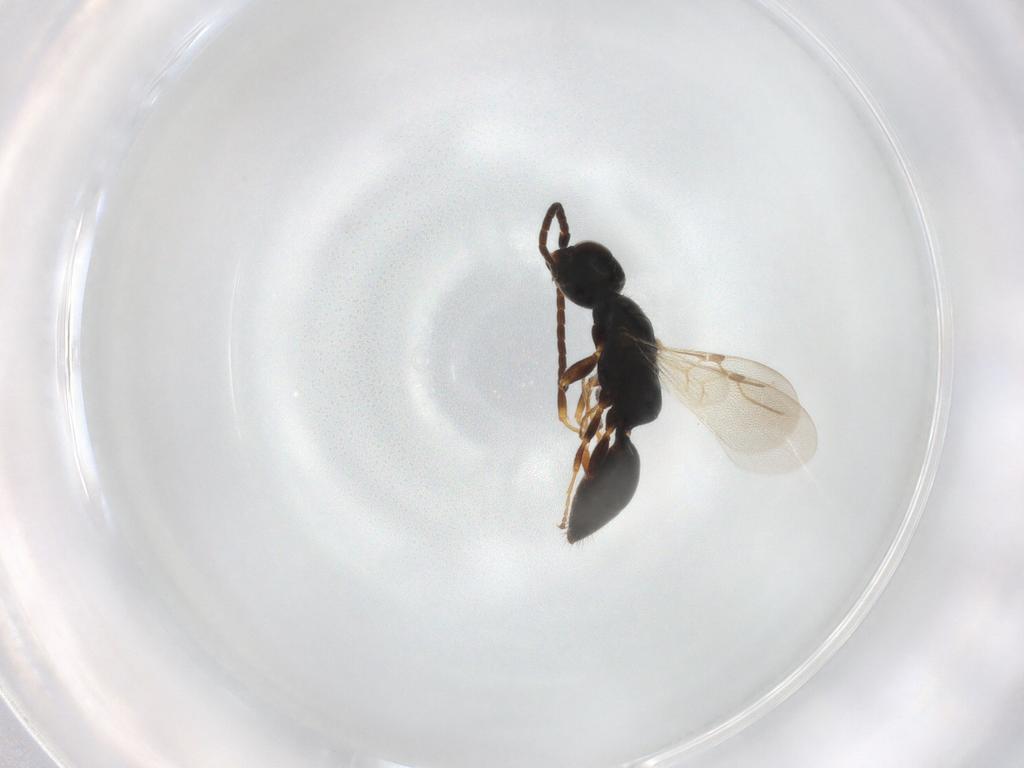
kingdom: Animalia
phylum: Arthropoda
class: Insecta
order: Hymenoptera
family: Bethylidae
